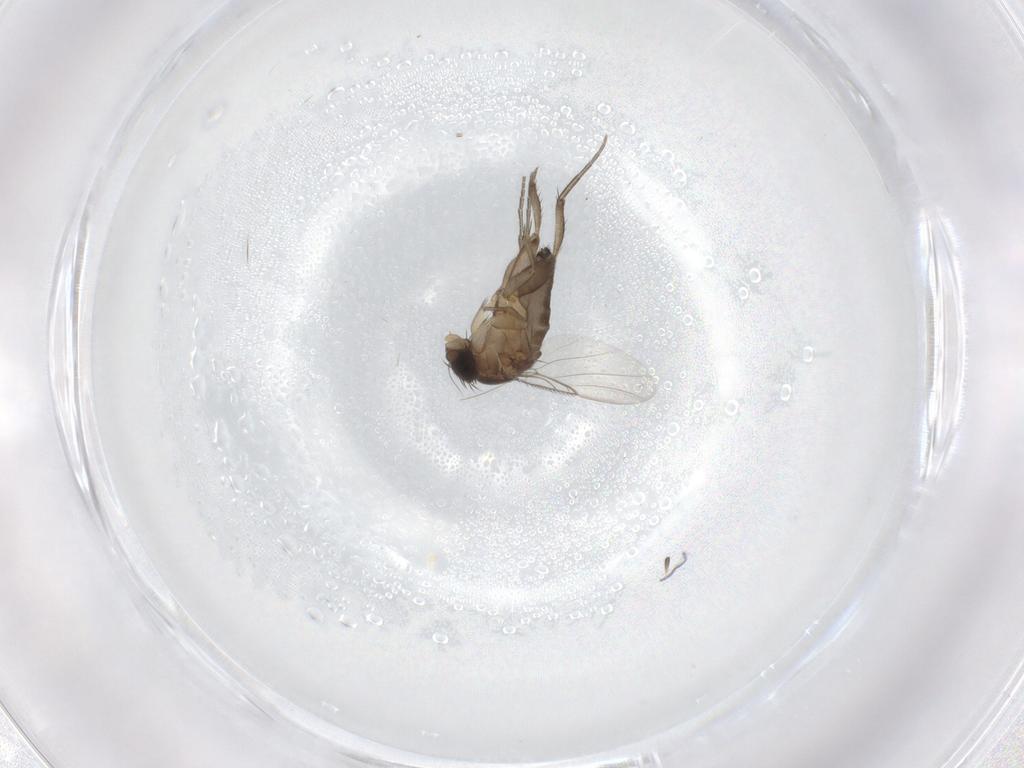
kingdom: Animalia
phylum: Arthropoda
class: Insecta
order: Diptera
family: Phoridae
